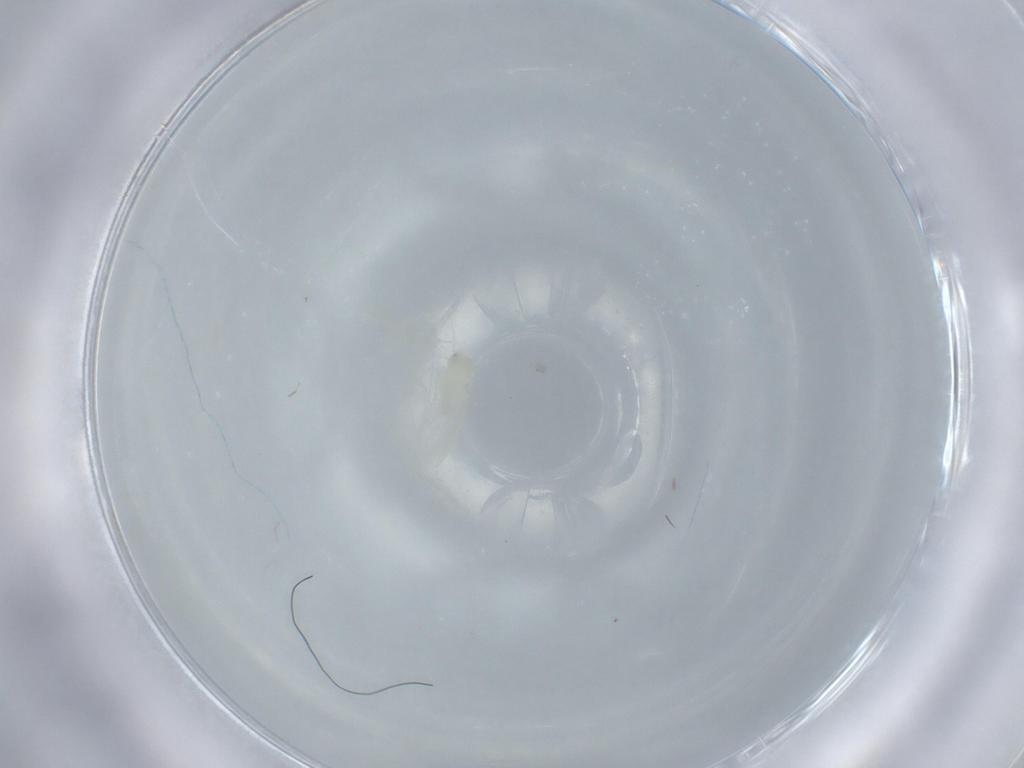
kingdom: Animalia
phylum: Arthropoda
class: Insecta
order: Hemiptera
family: Aleyrodidae
